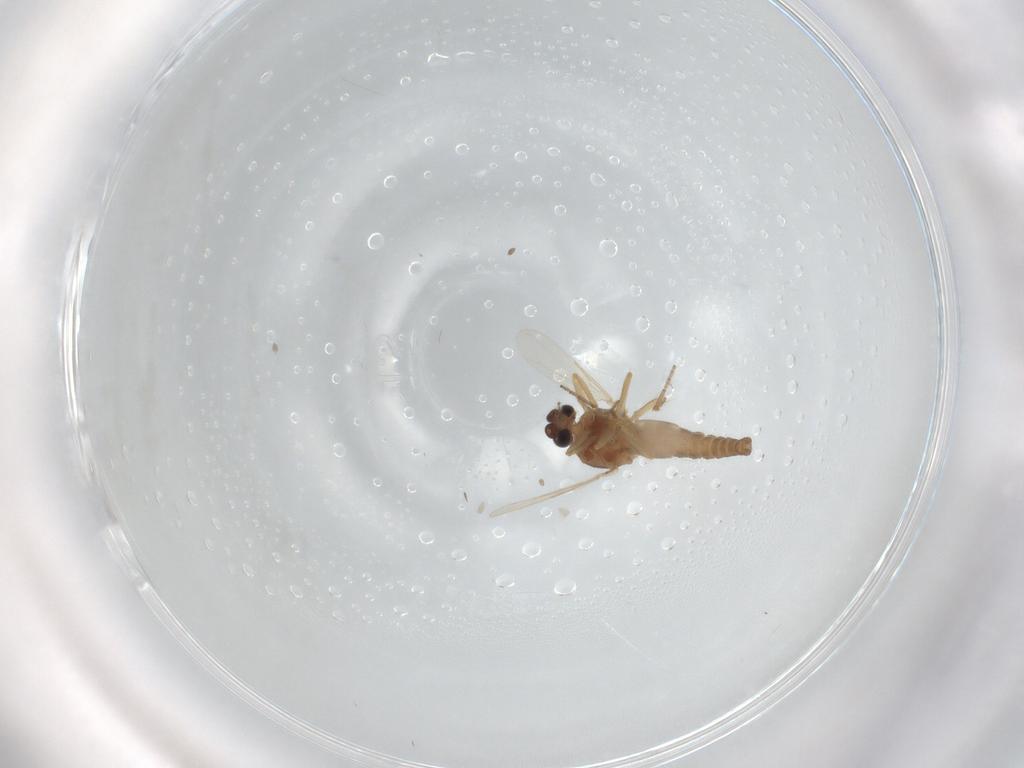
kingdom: Animalia
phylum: Arthropoda
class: Insecta
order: Diptera
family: Ceratopogonidae
